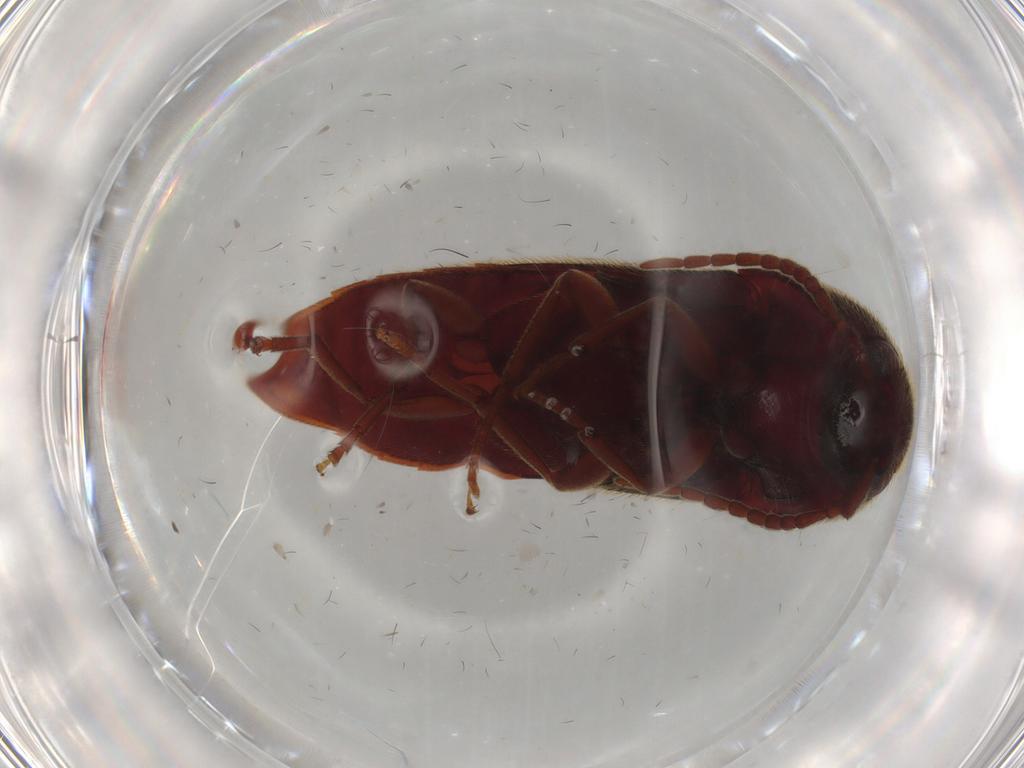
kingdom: Animalia
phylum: Arthropoda
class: Insecta
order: Coleoptera
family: Eucnemidae
